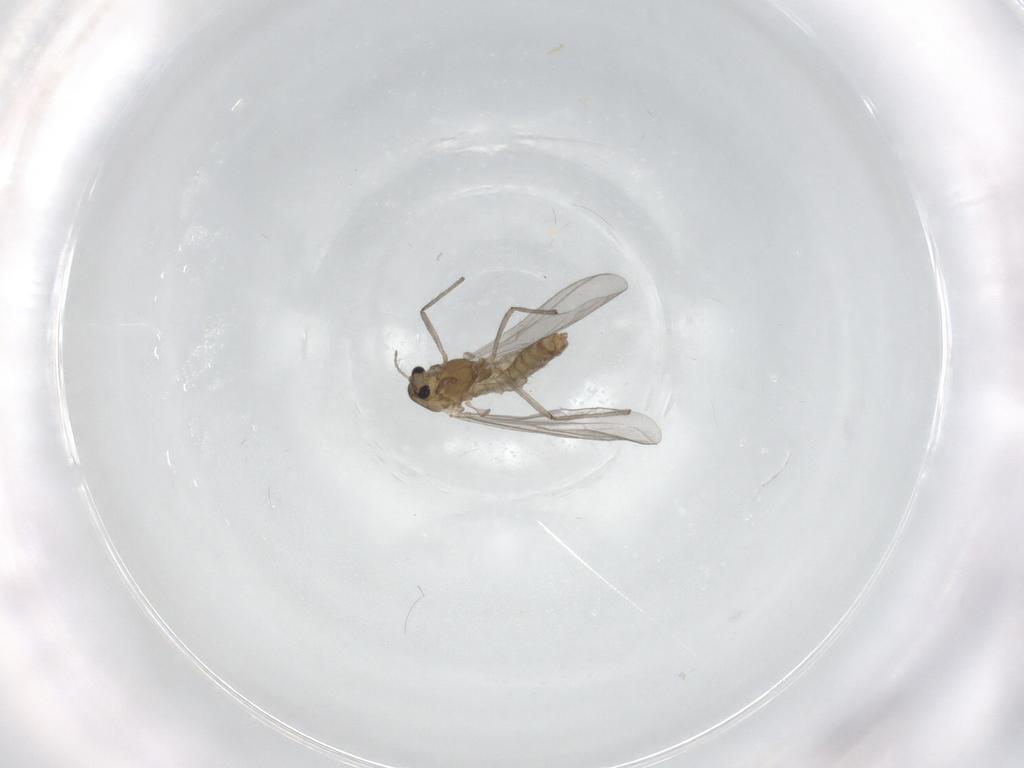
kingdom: Animalia
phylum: Arthropoda
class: Insecta
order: Diptera
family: Chironomidae
